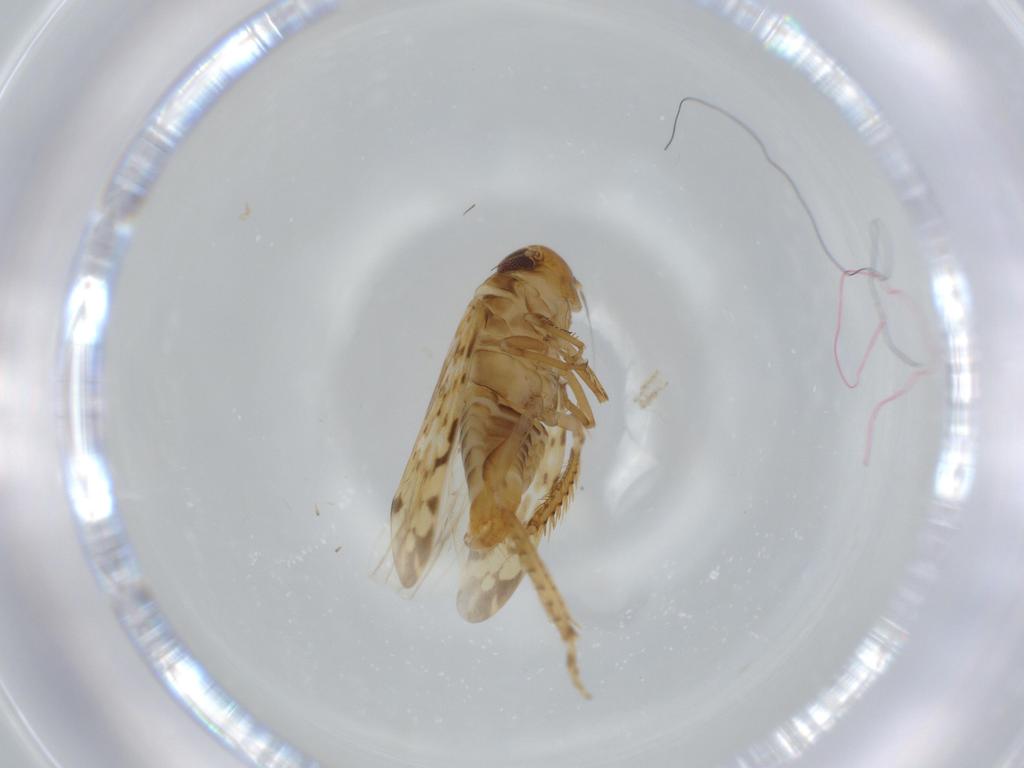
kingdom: Animalia
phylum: Arthropoda
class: Insecta
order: Hemiptera
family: Cicadellidae
